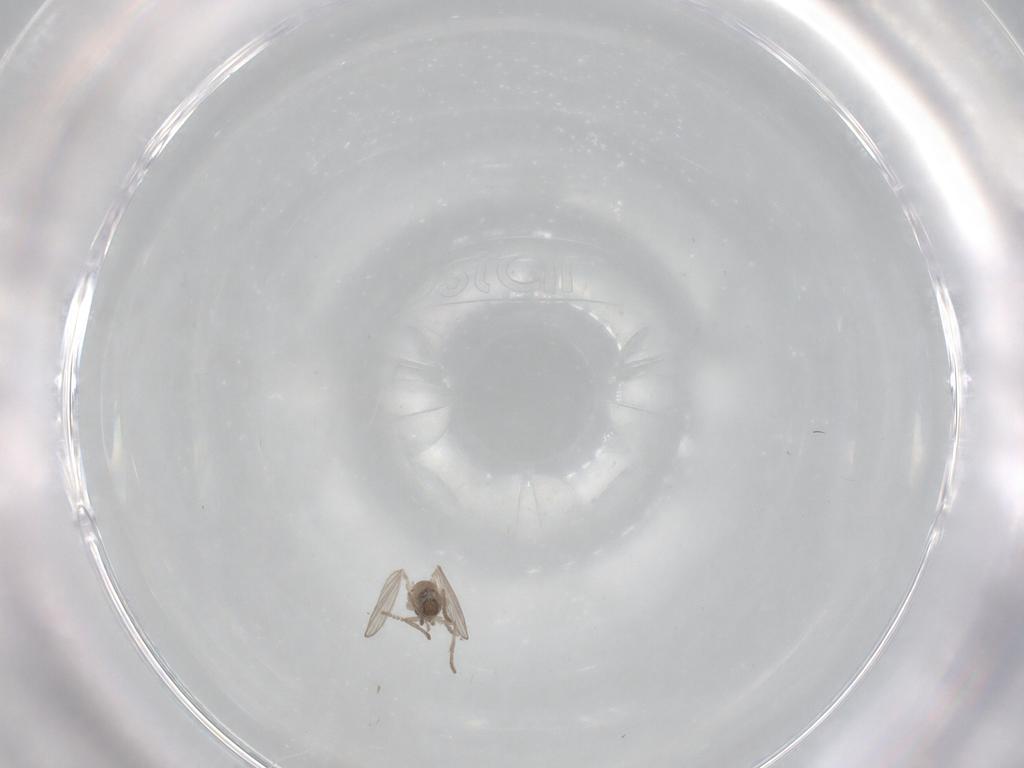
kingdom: Animalia
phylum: Arthropoda
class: Insecta
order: Diptera
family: Psychodidae
